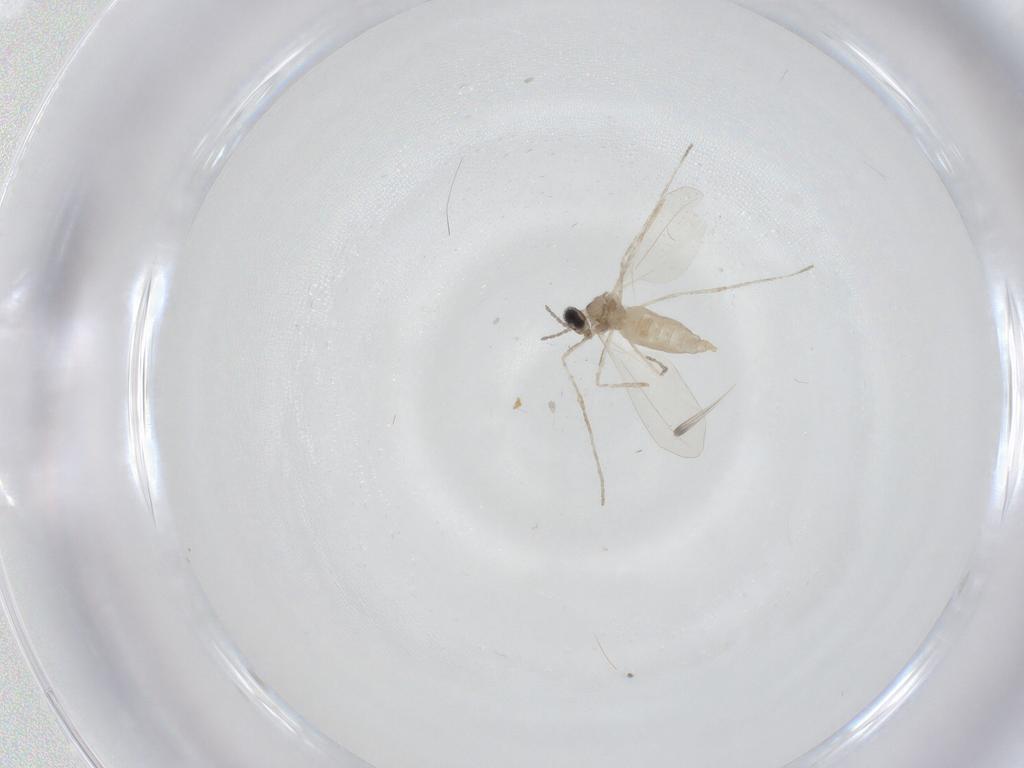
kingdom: Animalia
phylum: Arthropoda
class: Insecta
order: Diptera
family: Cecidomyiidae
